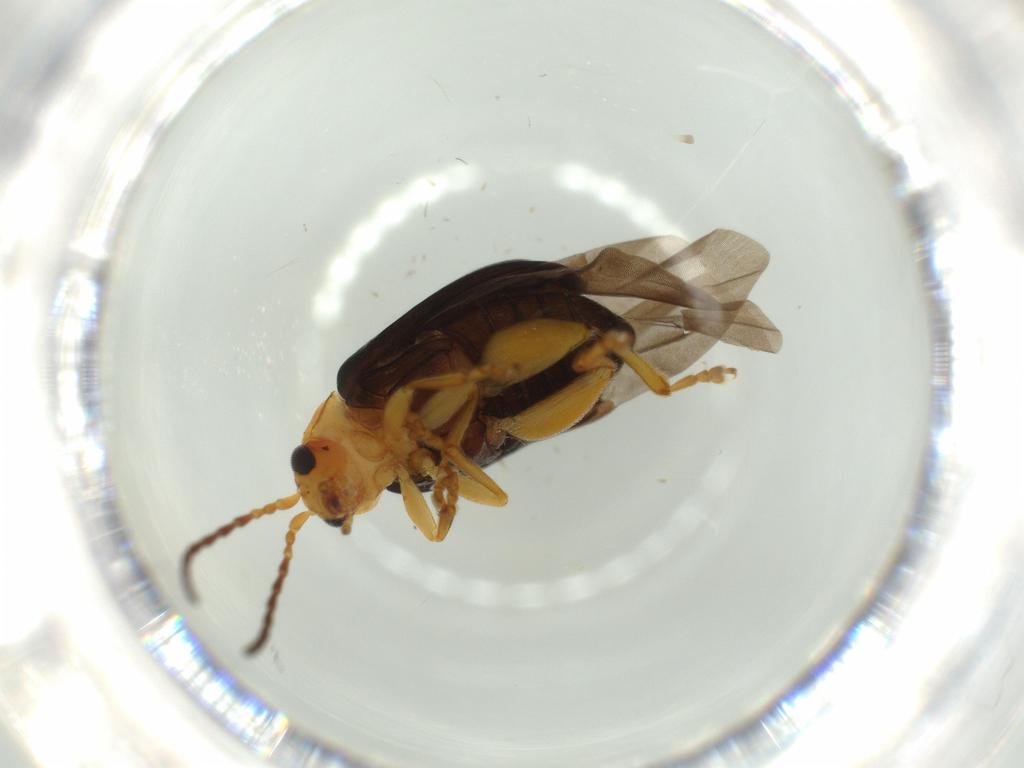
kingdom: Animalia
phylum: Arthropoda
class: Insecta
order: Coleoptera
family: Chrysomelidae
